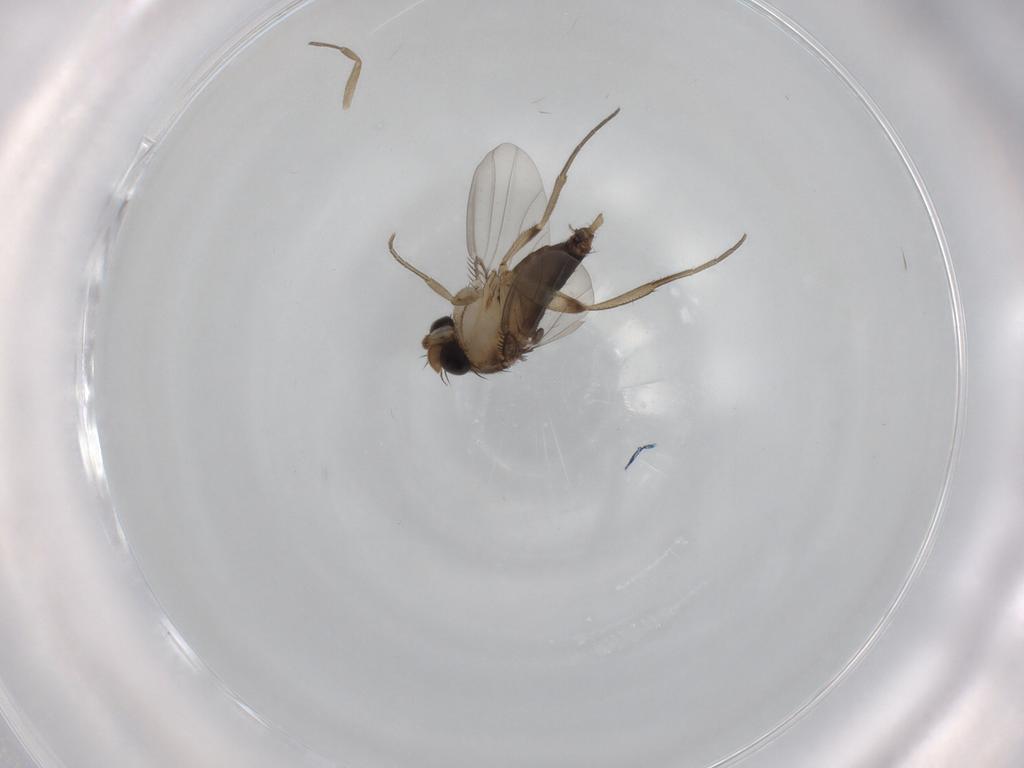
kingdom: Animalia
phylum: Arthropoda
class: Insecta
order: Diptera
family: Phoridae
